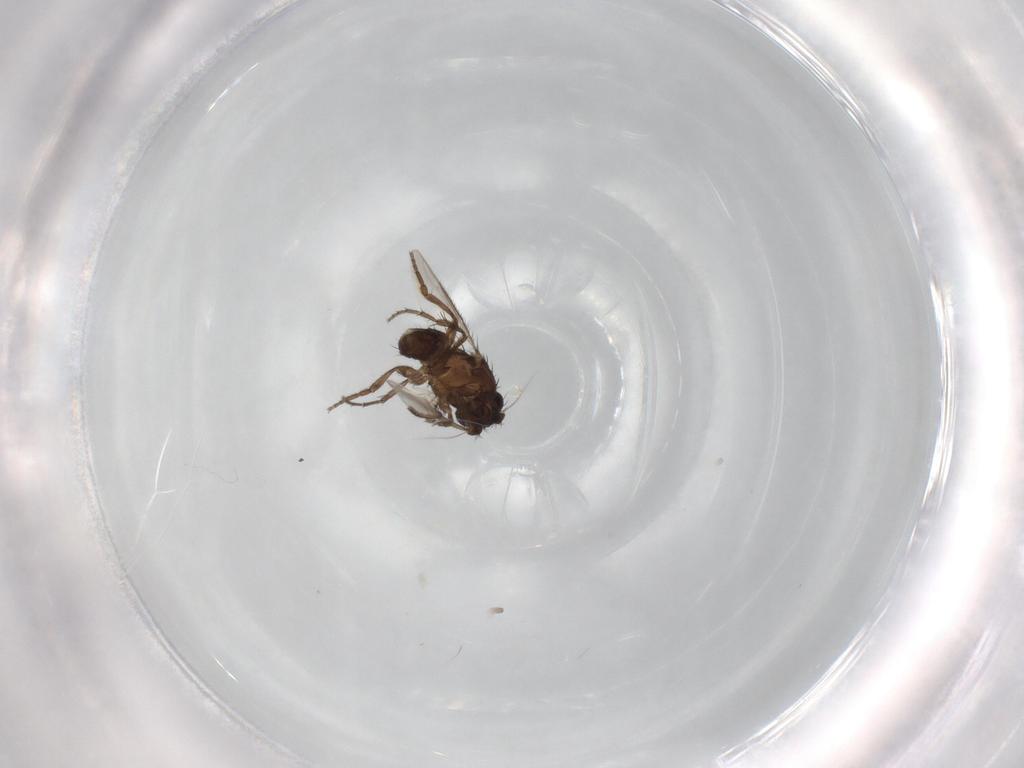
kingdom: Animalia
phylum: Arthropoda
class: Insecta
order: Diptera
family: Sphaeroceridae
